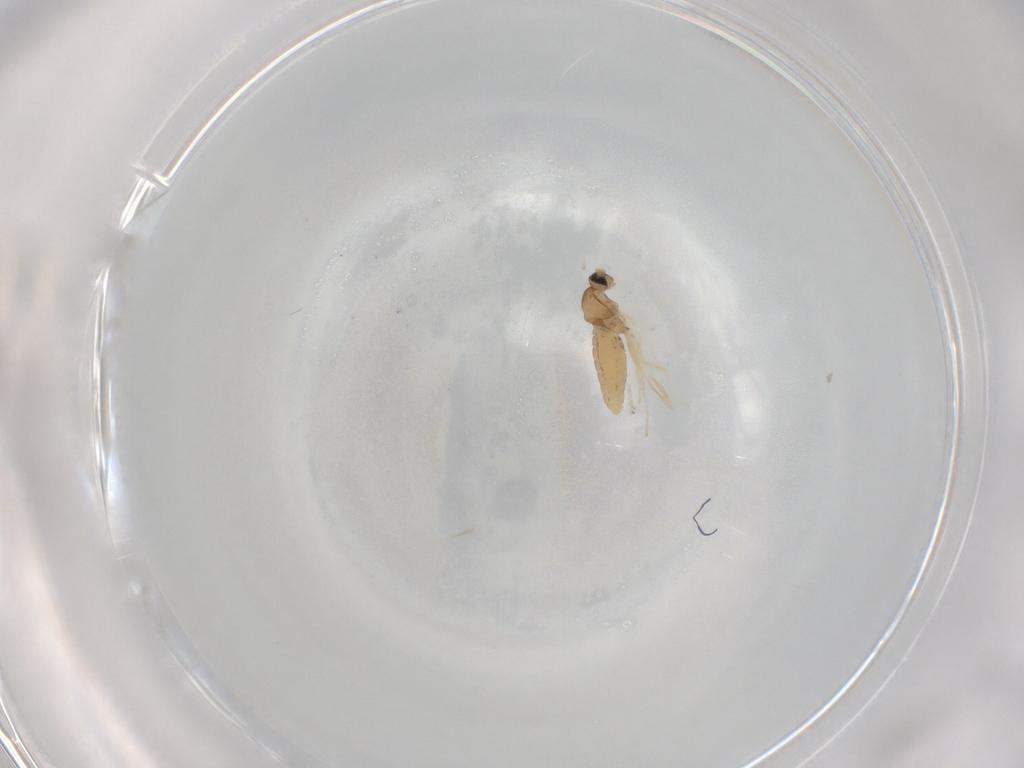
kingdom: Animalia
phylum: Arthropoda
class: Insecta
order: Diptera
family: Cecidomyiidae
